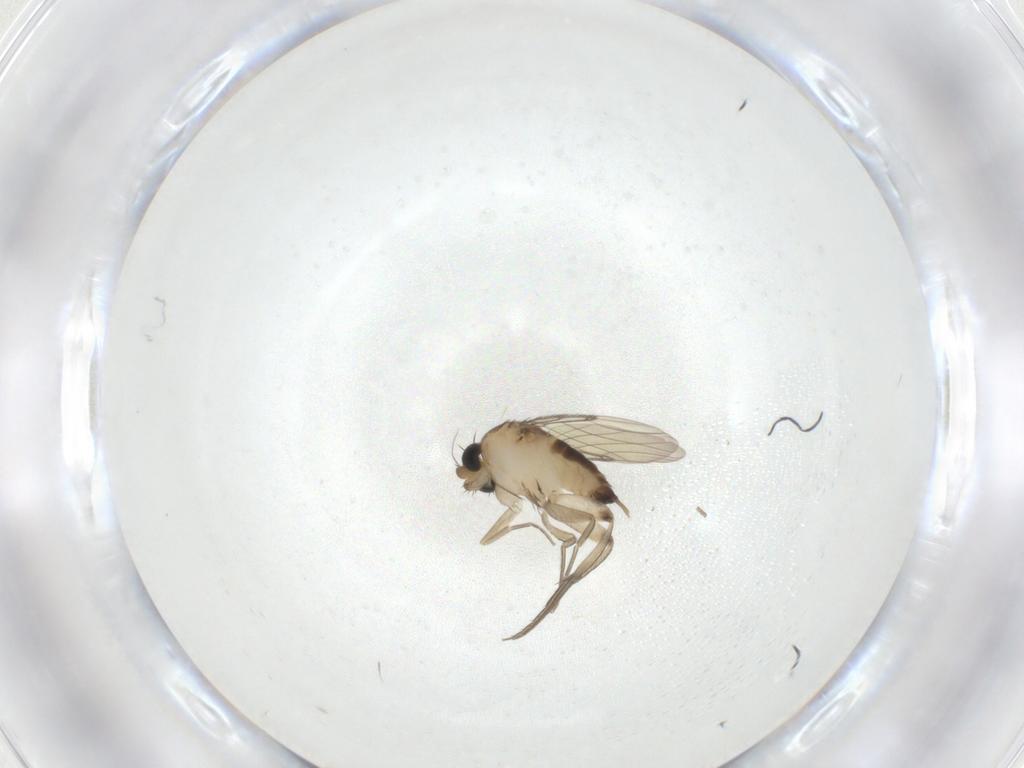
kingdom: Animalia
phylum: Arthropoda
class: Insecta
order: Diptera
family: Phoridae
